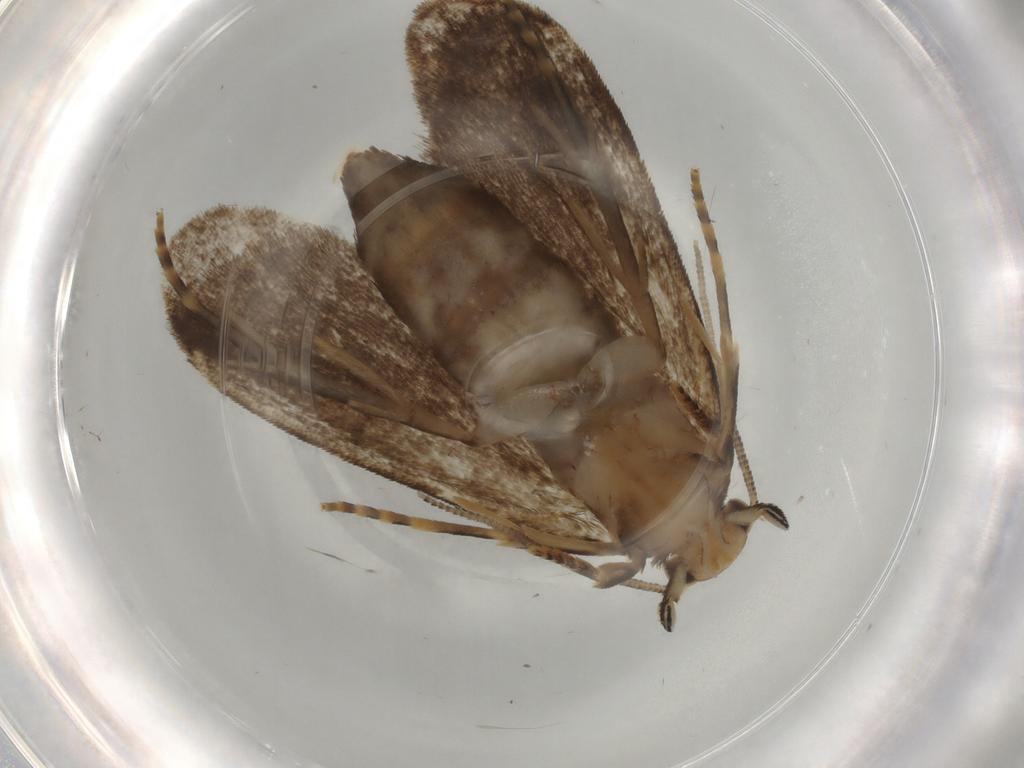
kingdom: Animalia
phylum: Arthropoda
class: Insecta
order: Lepidoptera
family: Dryadaulidae
